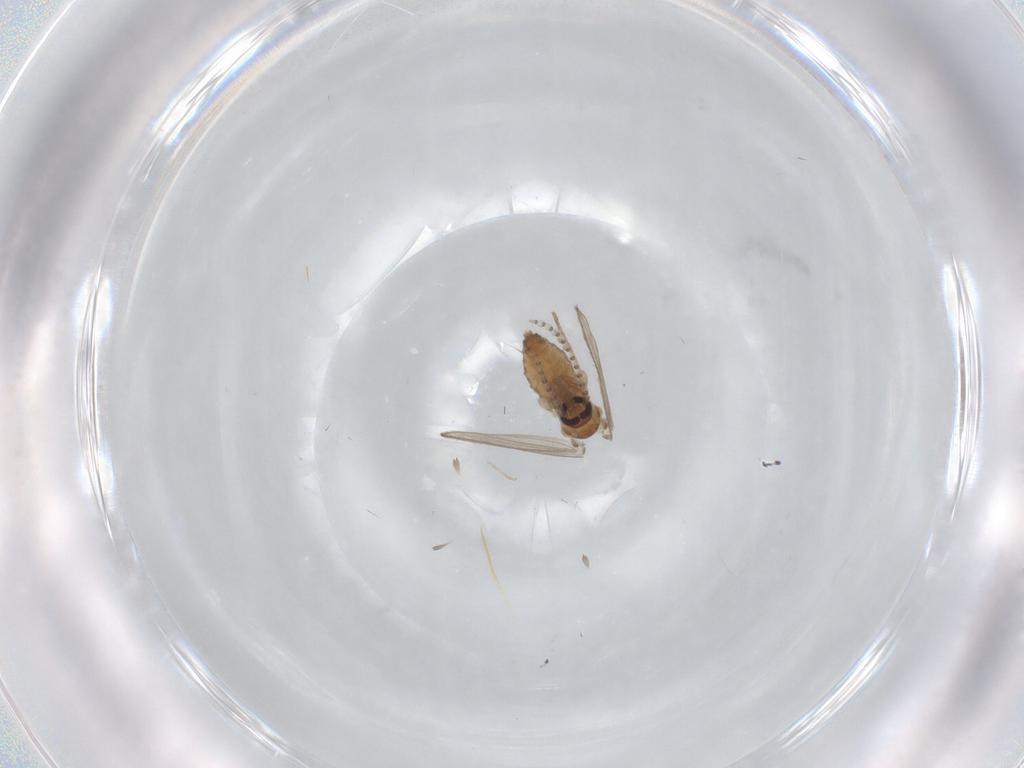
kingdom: Animalia
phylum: Arthropoda
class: Insecta
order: Diptera
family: Psychodidae
